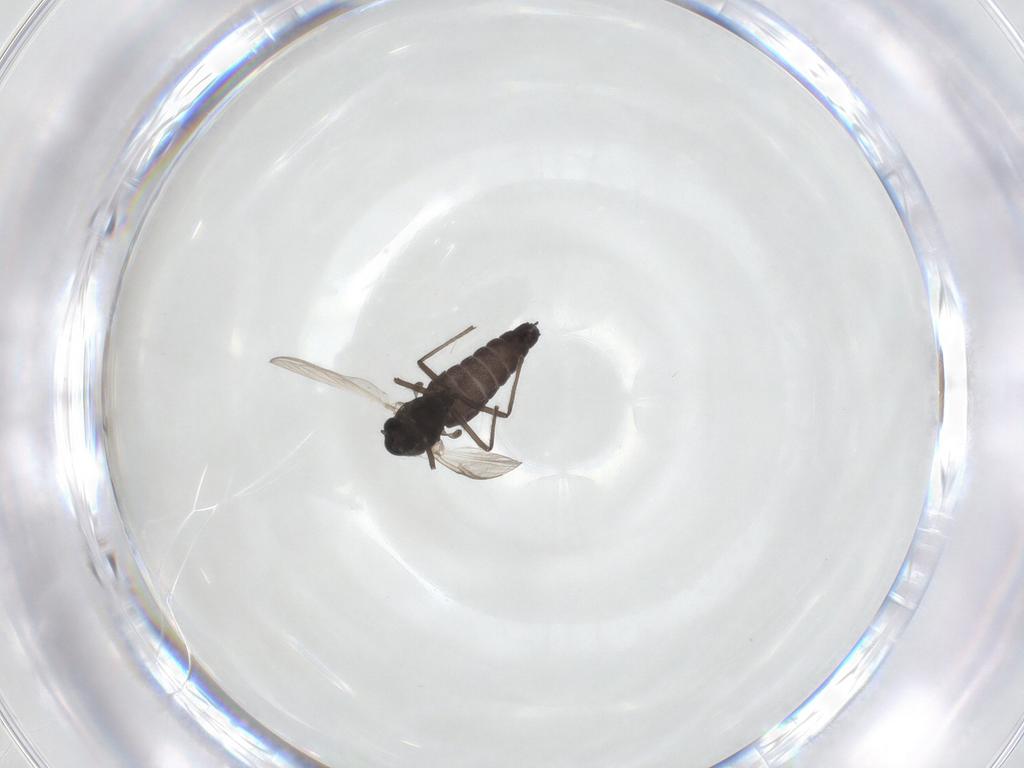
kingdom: Animalia
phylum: Arthropoda
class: Insecta
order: Diptera
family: Chironomidae
